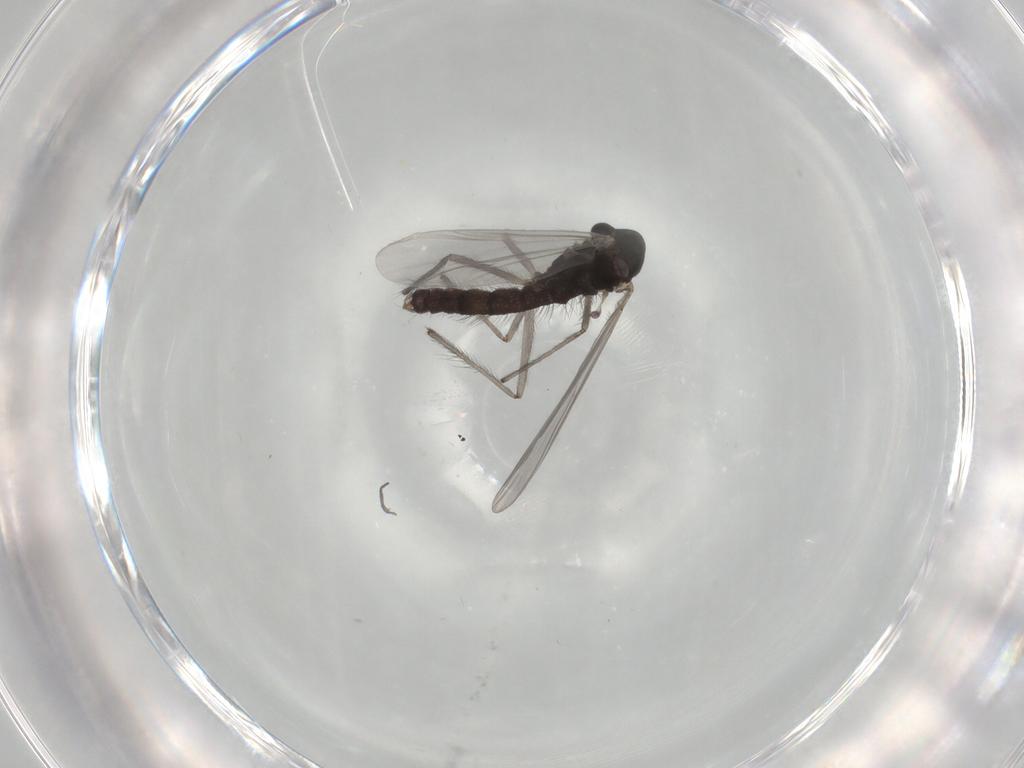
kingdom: Animalia
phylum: Arthropoda
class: Insecta
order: Diptera
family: Chironomidae
